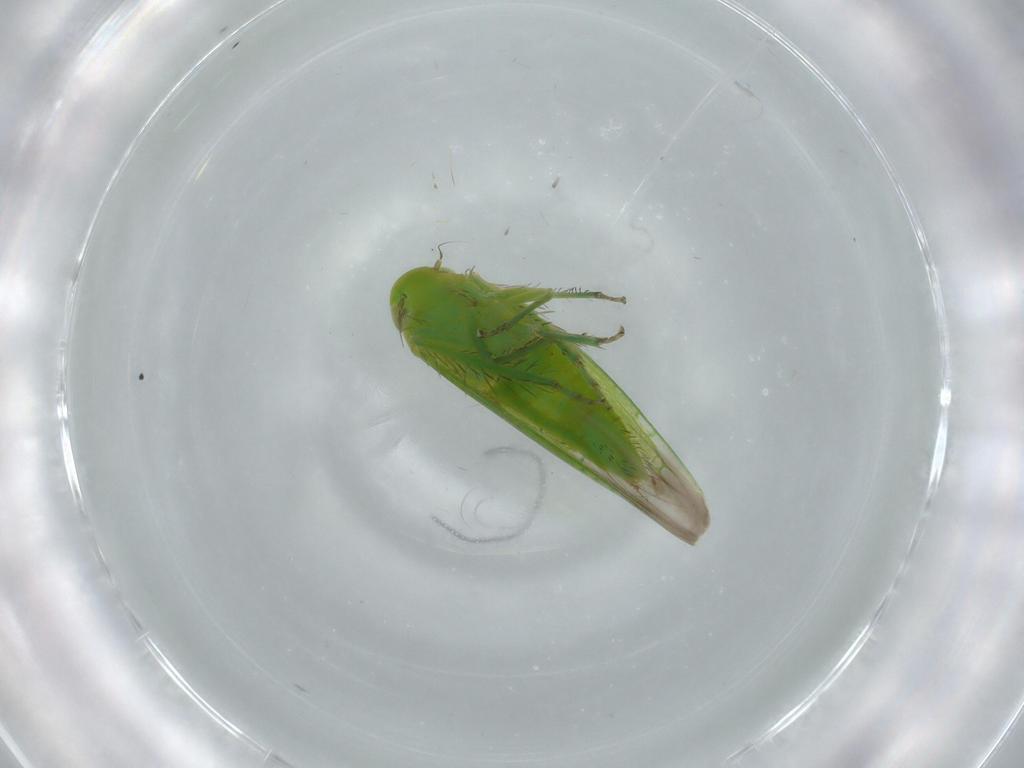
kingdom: Animalia
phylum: Arthropoda
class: Insecta
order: Hemiptera
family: Cicadellidae
